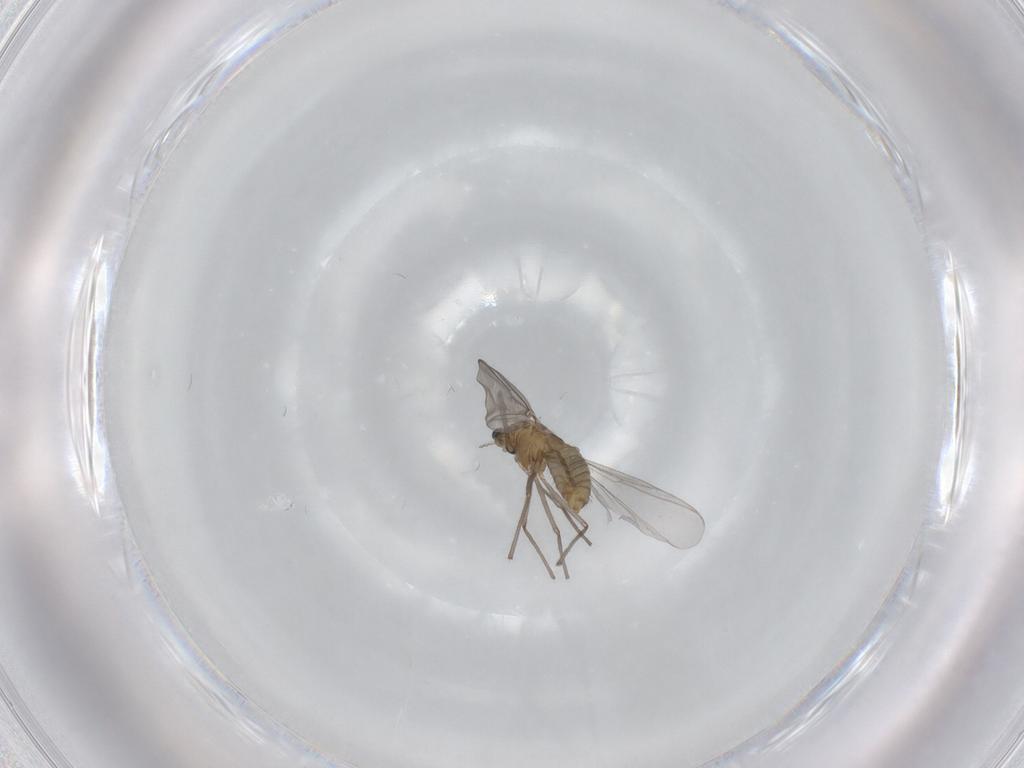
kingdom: Animalia
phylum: Arthropoda
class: Insecta
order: Diptera
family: Chironomidae
